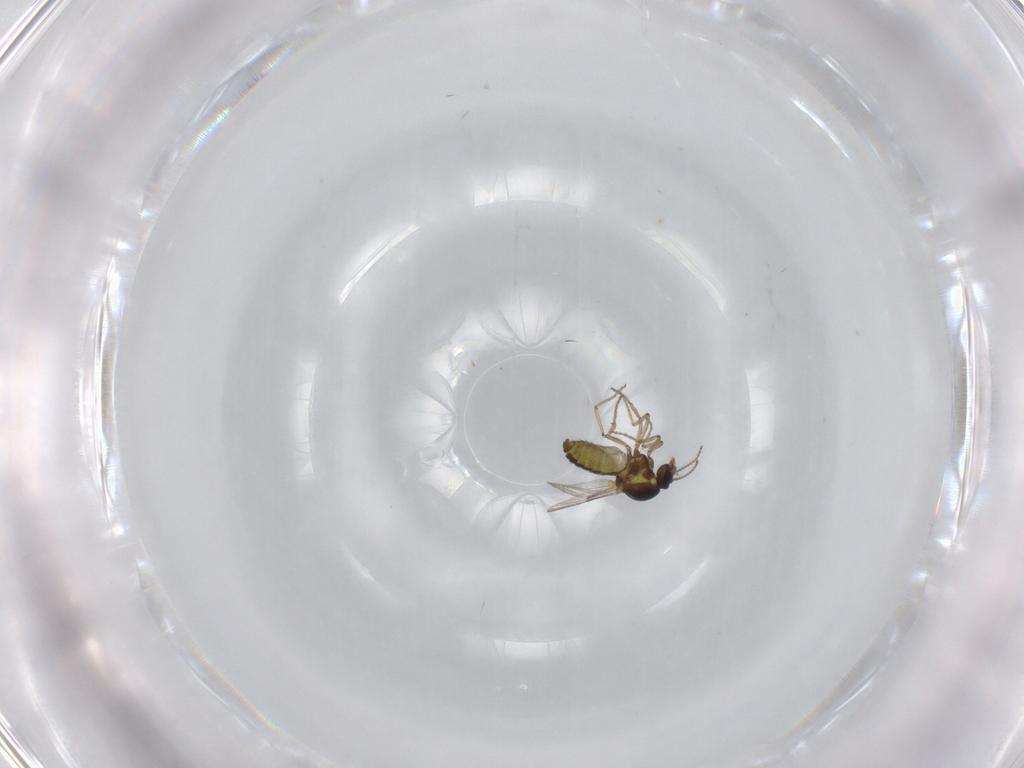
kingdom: Animalia
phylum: Arthropoda
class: Insecta
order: Diptera
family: Ceratopogonidae
